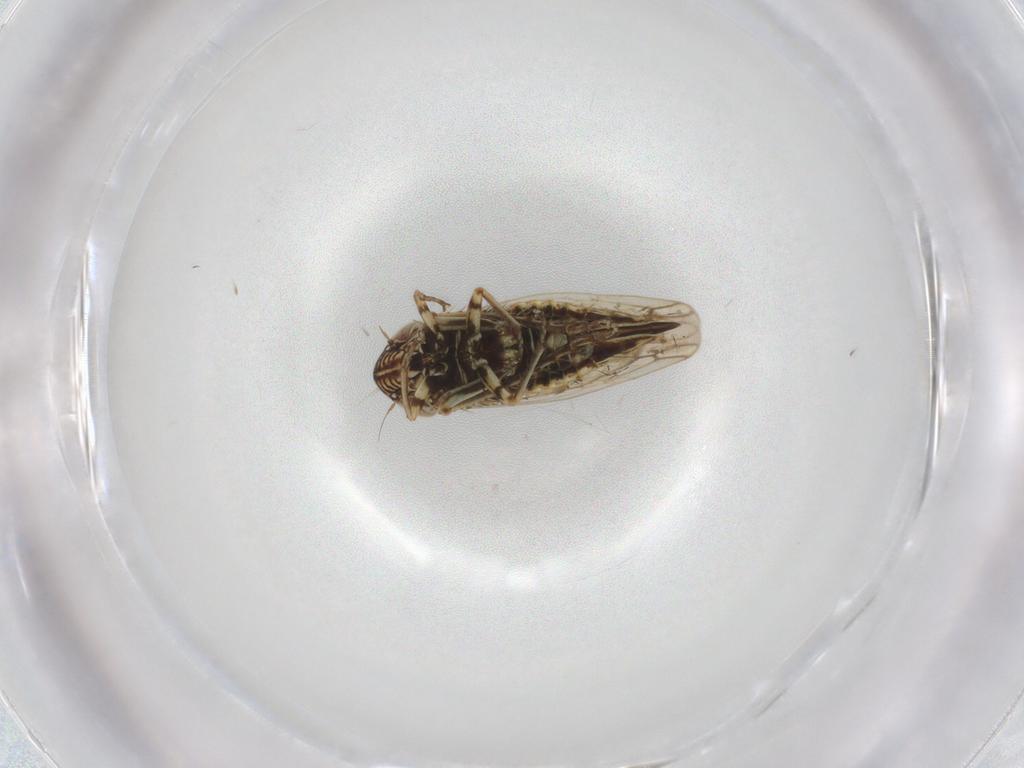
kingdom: Animalia
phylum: Arthropoda
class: Insecta
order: Hemiptera
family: Cicadellidae
